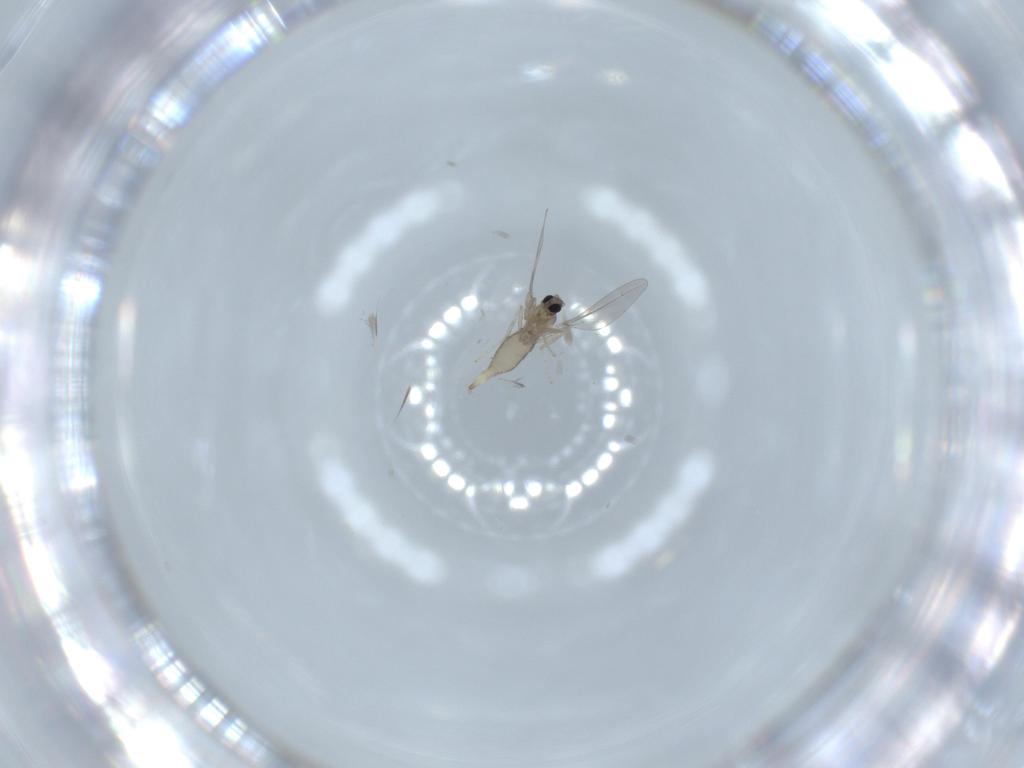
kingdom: Animalia
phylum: Arthropoda
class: Insecta
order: Diptera
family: Cecidomyiidae
